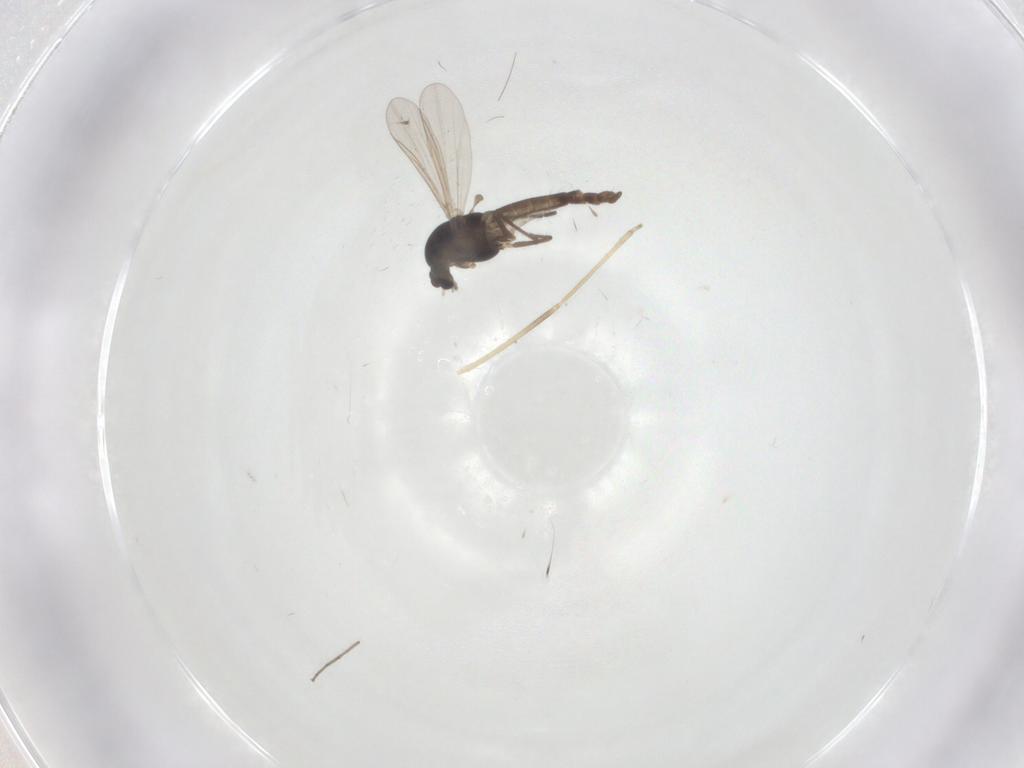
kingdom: Animalia
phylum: Arthropoda
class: Insecta
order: Diptera
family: Chironomidae
